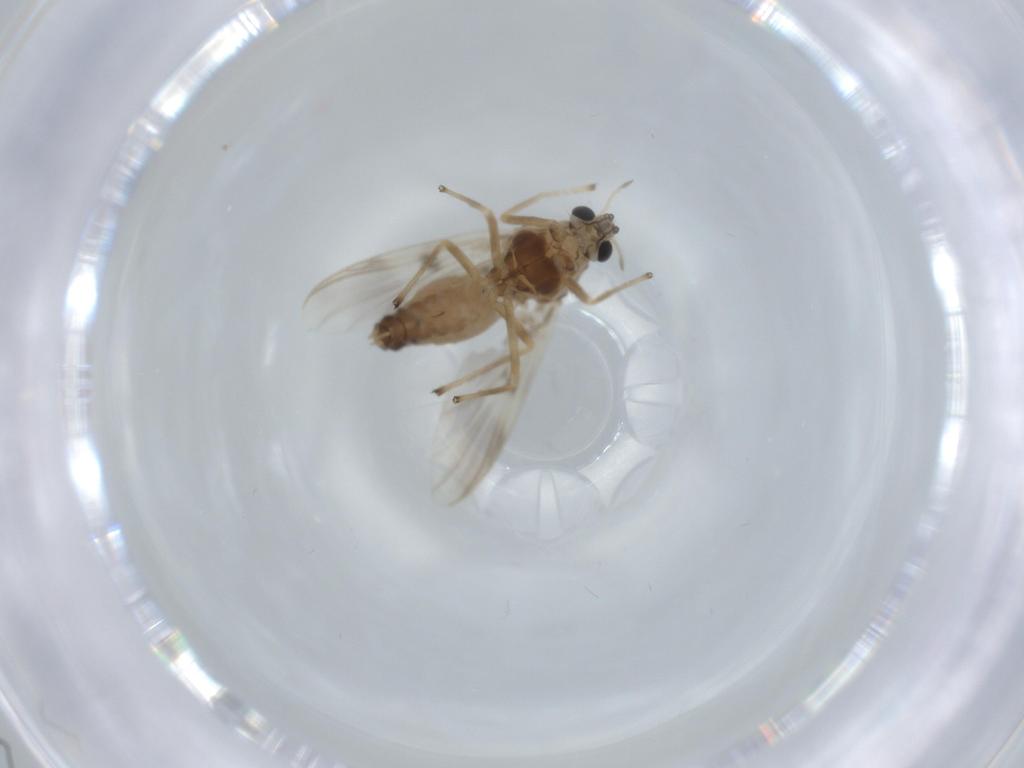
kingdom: Animalia
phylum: Arthropoda
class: Insecta
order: Diptera
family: Chironomidae
